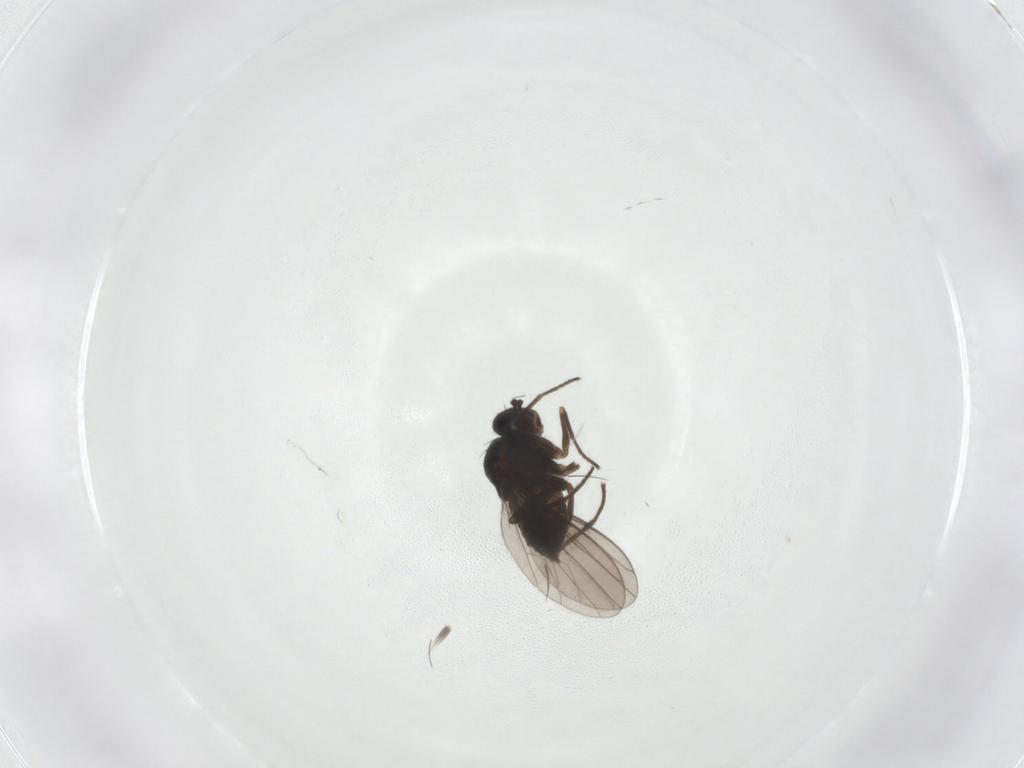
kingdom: Animalia
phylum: Arthropoda
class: Insecta
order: Diptera
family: Dolichopodidae
